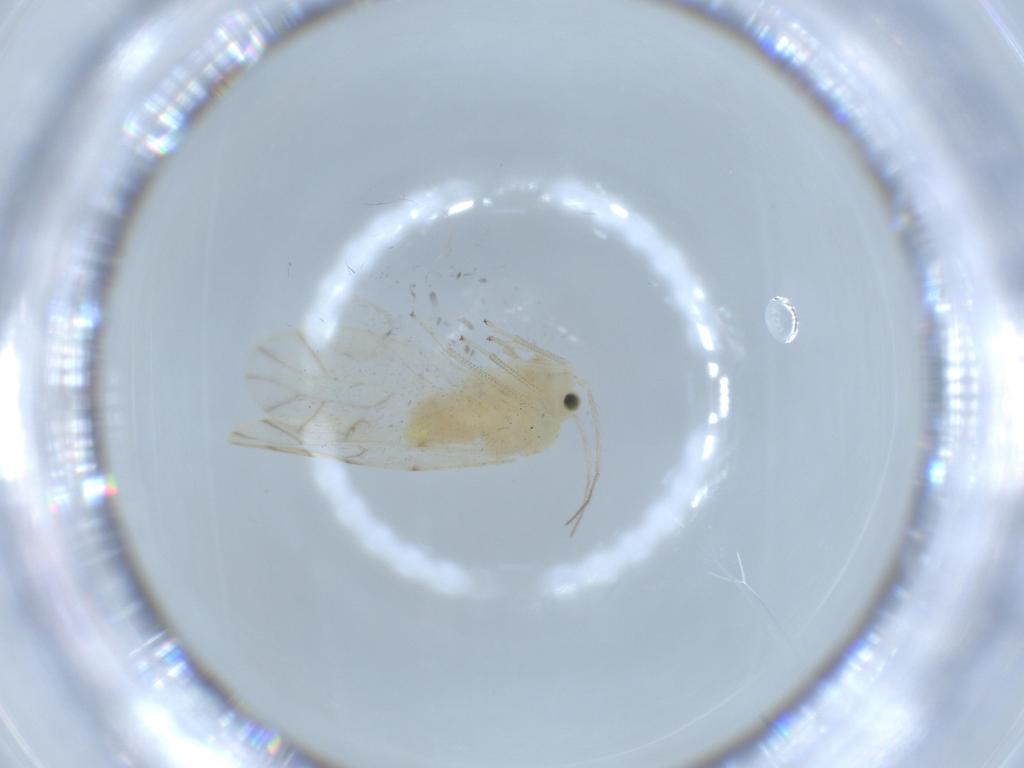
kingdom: Animalia
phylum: Arthropoda
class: Insecta
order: Psocodea
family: Caeciliusidae
